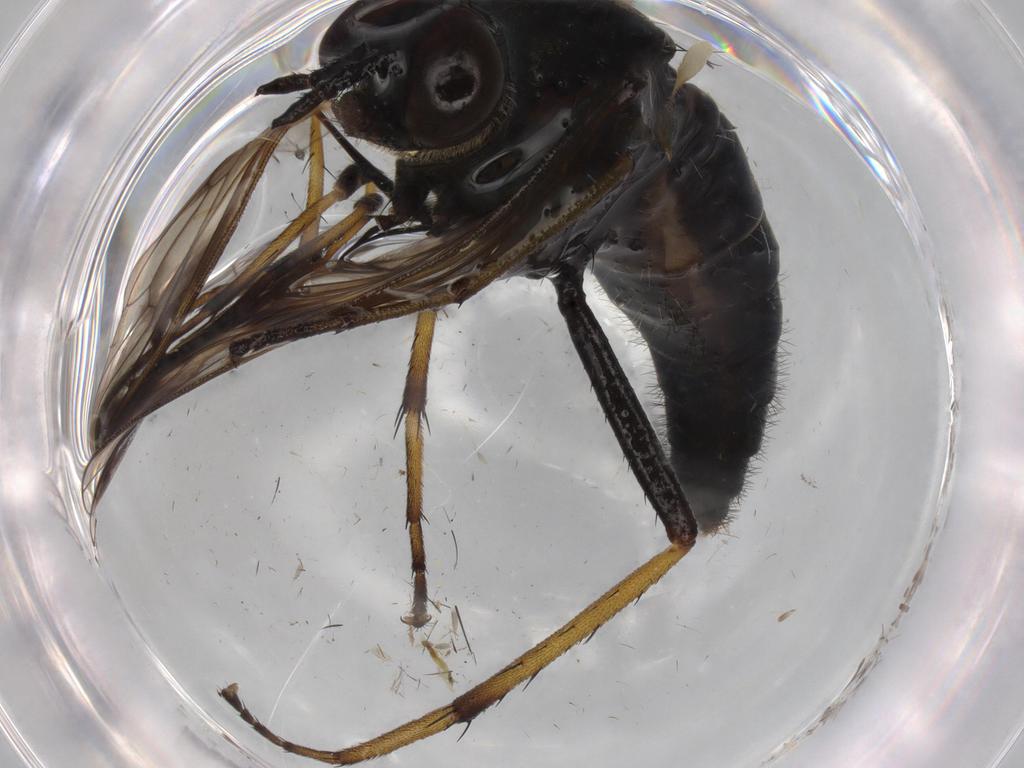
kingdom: Animalia
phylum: Arthropoda
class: Insecta
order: Diptera
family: Therevidae
